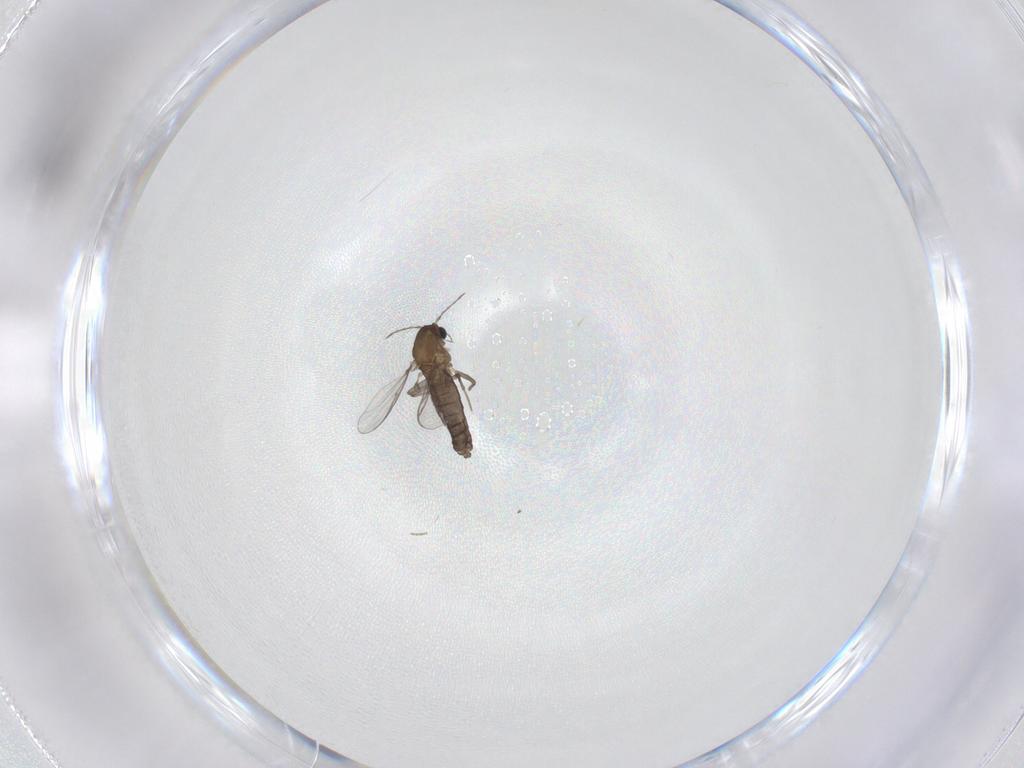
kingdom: Animalia
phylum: Arthropoda
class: Insecta
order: Diptera
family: Chironomidae
